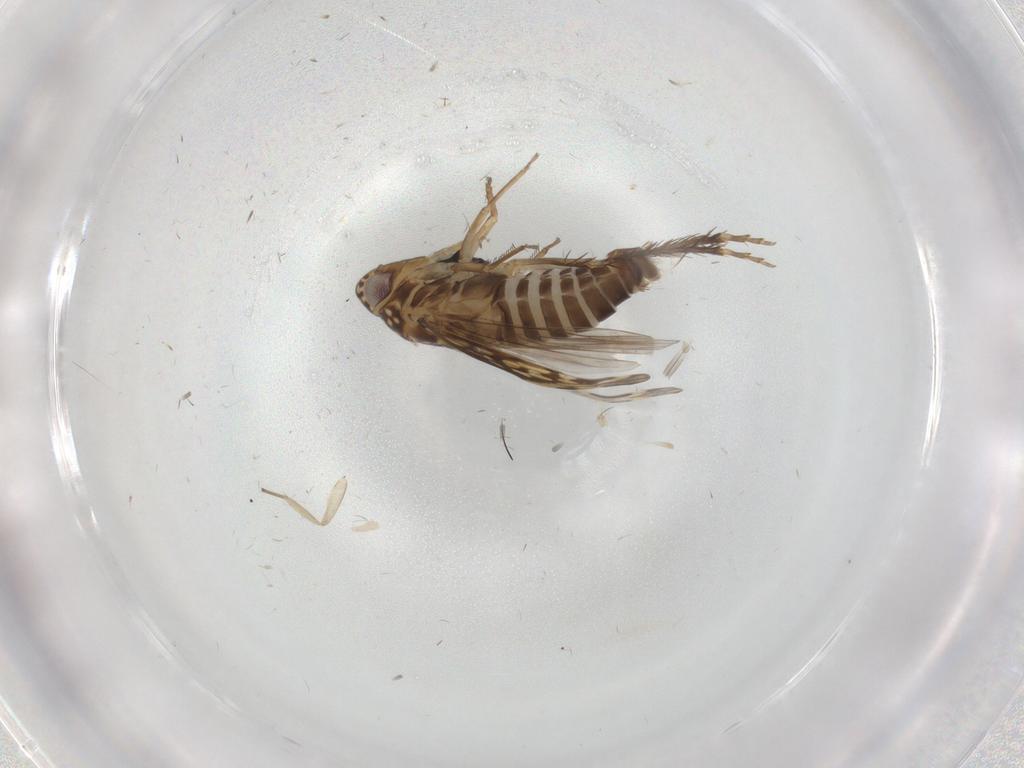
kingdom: Animalia
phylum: Arthropoda
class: Insecta
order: Hemiptera
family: Cicadellidae
